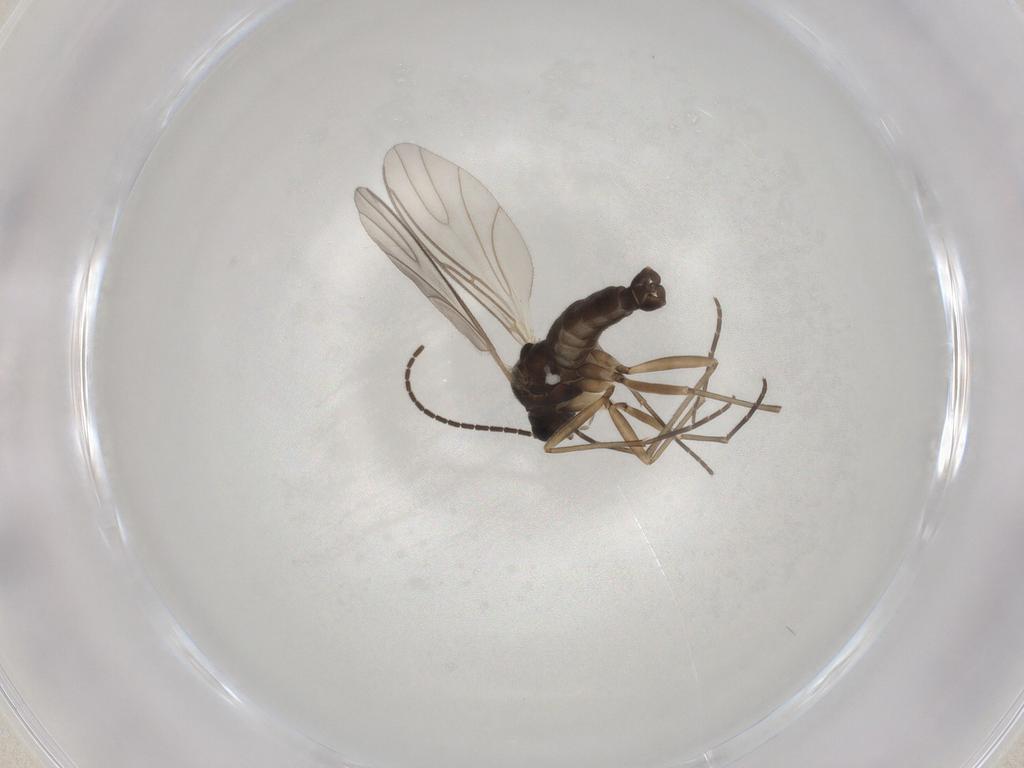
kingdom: Animalia
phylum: Arthropoda
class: Insecta
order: Diptera
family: Sciaridae
